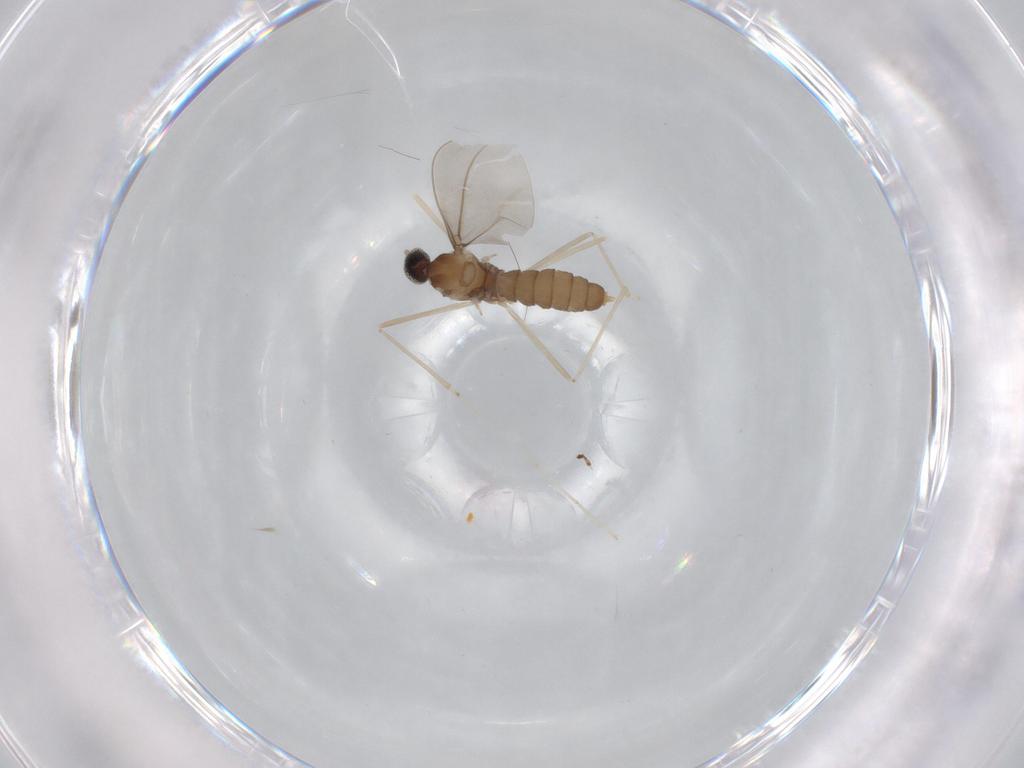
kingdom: Animalia
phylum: Arthropoda
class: Insecta
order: Diptera
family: Cecidomyiidae
